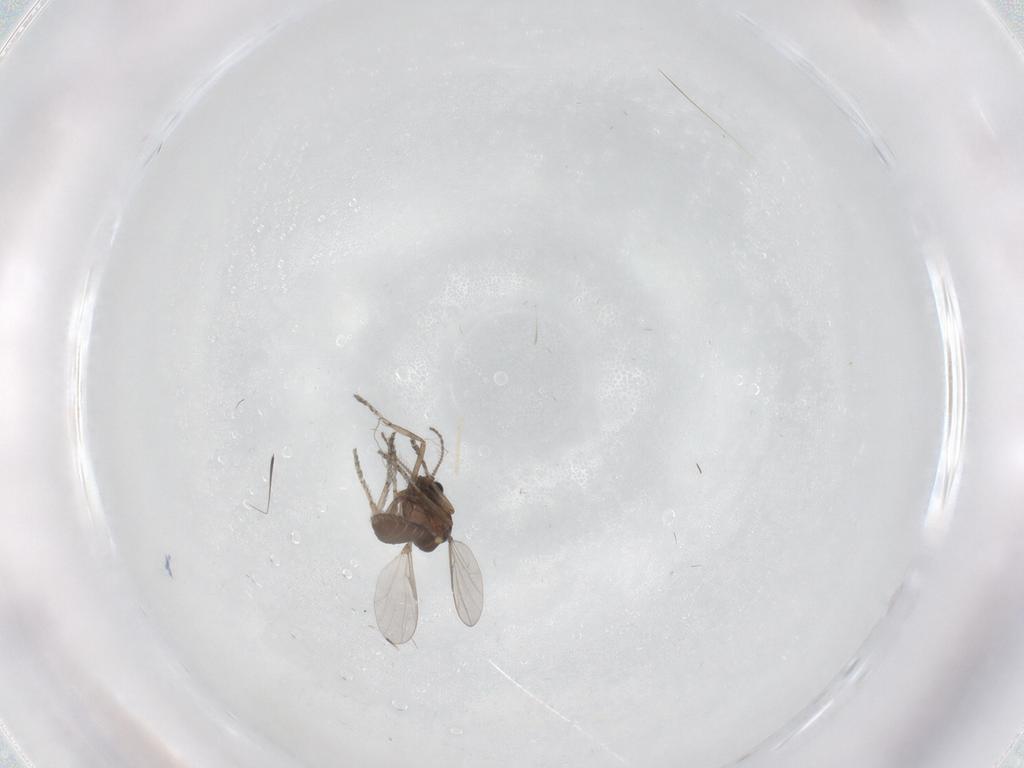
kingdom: Animalia
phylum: Arthropoda
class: Insecta
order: Diptera
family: Ceratopogonidae
